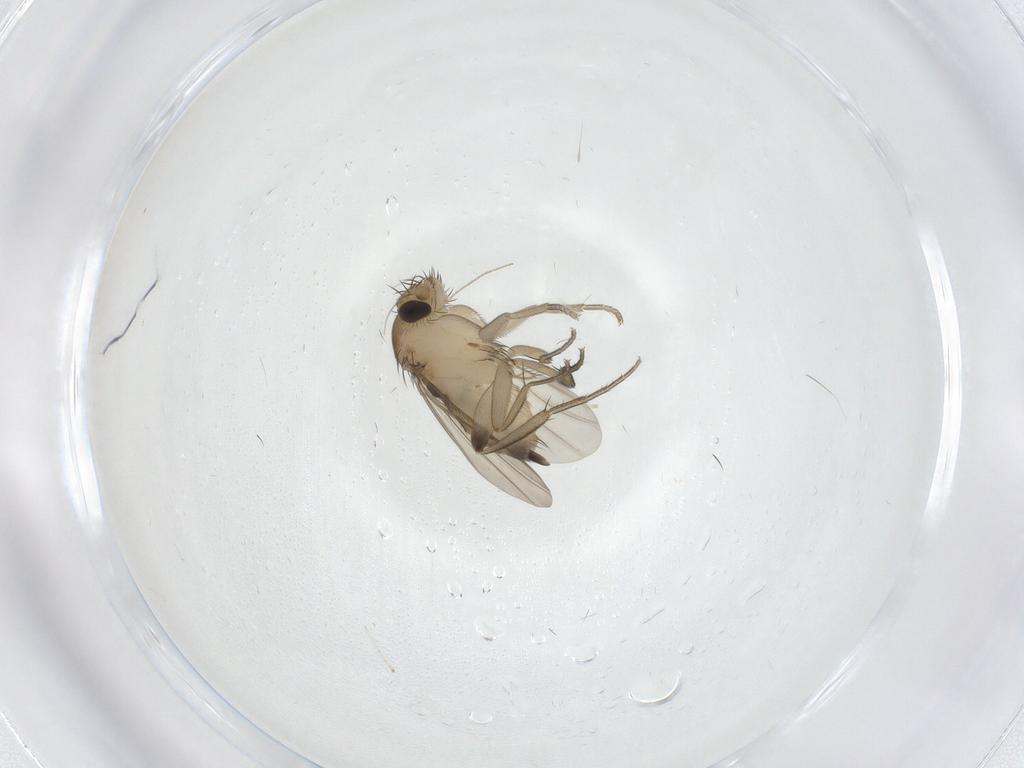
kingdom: Animalia
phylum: Arthropoda
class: Insecta
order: Diptera
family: Chironomidae
